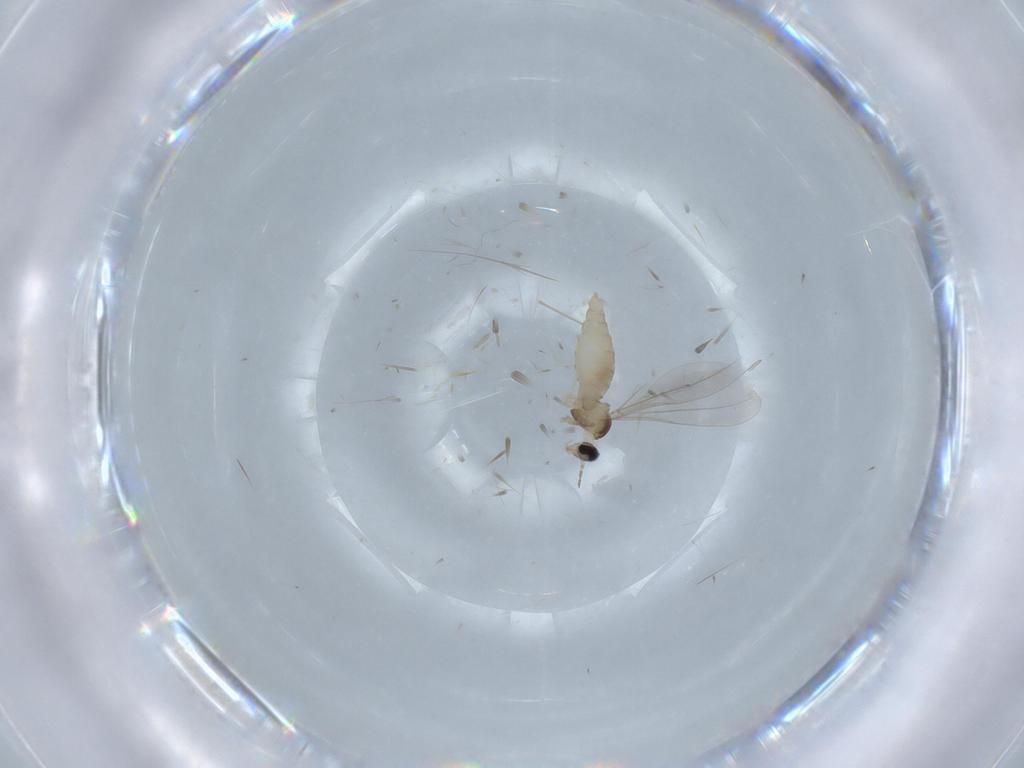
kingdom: Animalia
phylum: Arthropoda
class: Insecta
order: Diptera
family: Cecidomyiidae
